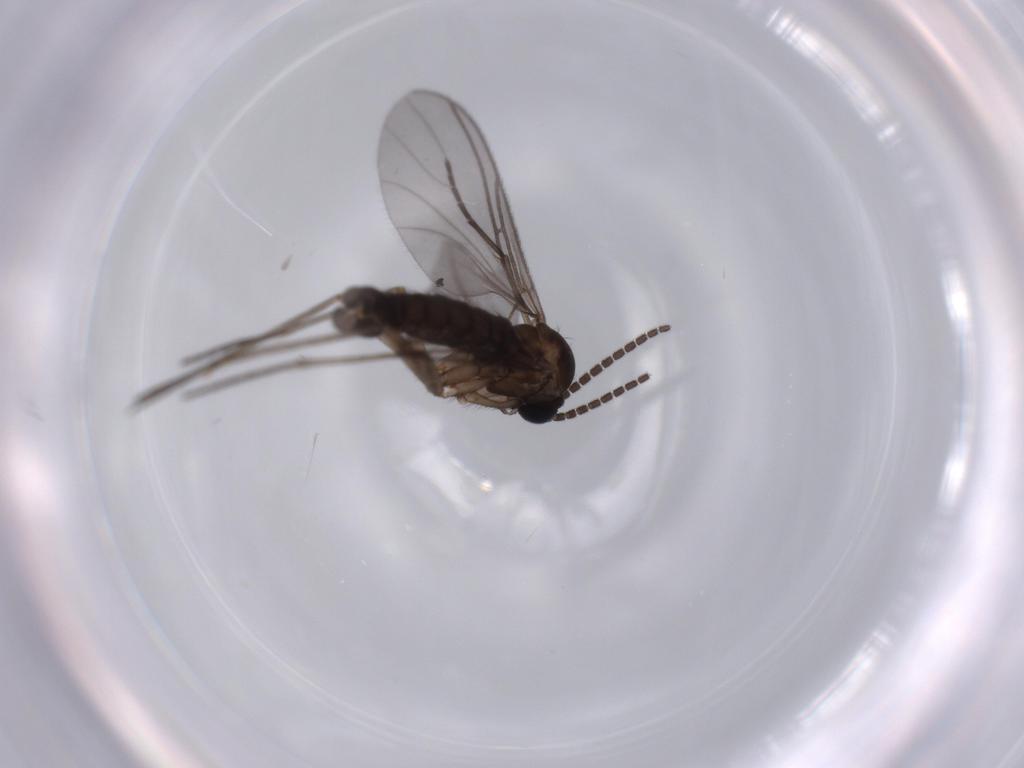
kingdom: Animalia
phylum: Arthropoda
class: Insecta
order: Diptera
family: Sciaridae
